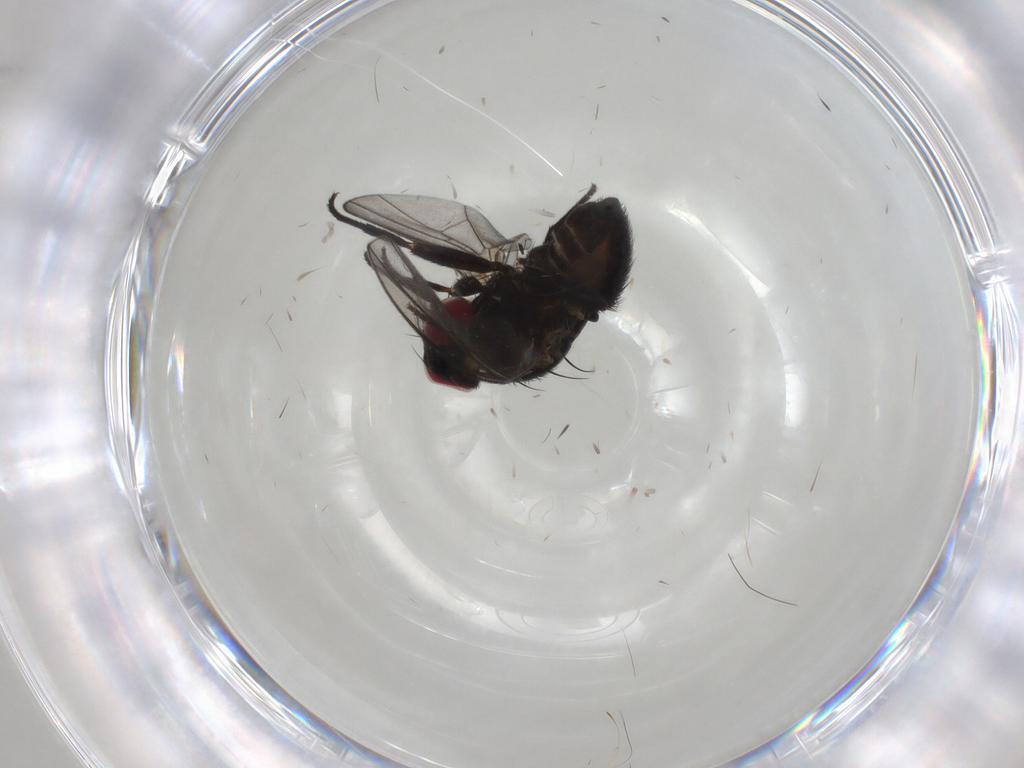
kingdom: Animalia
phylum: Arthropoda
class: Insecta
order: Diptera
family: Agromyzidae
